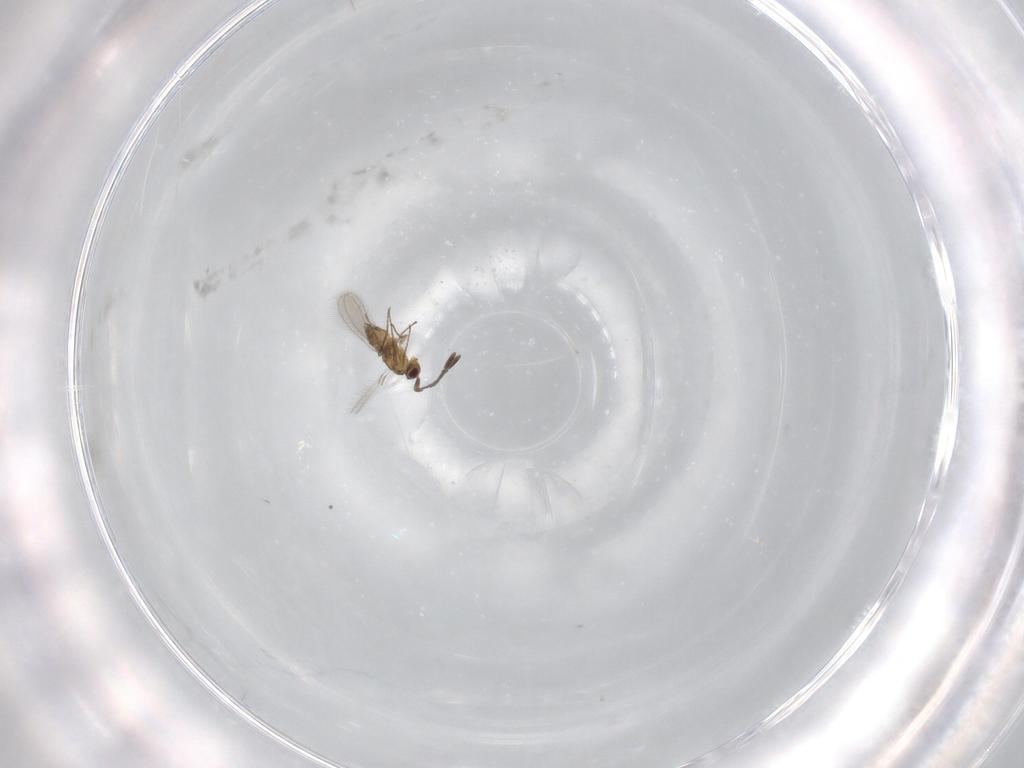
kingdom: Animalia
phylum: Arthropoda
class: Insecta
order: Hymenoptera
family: Mymaridae
